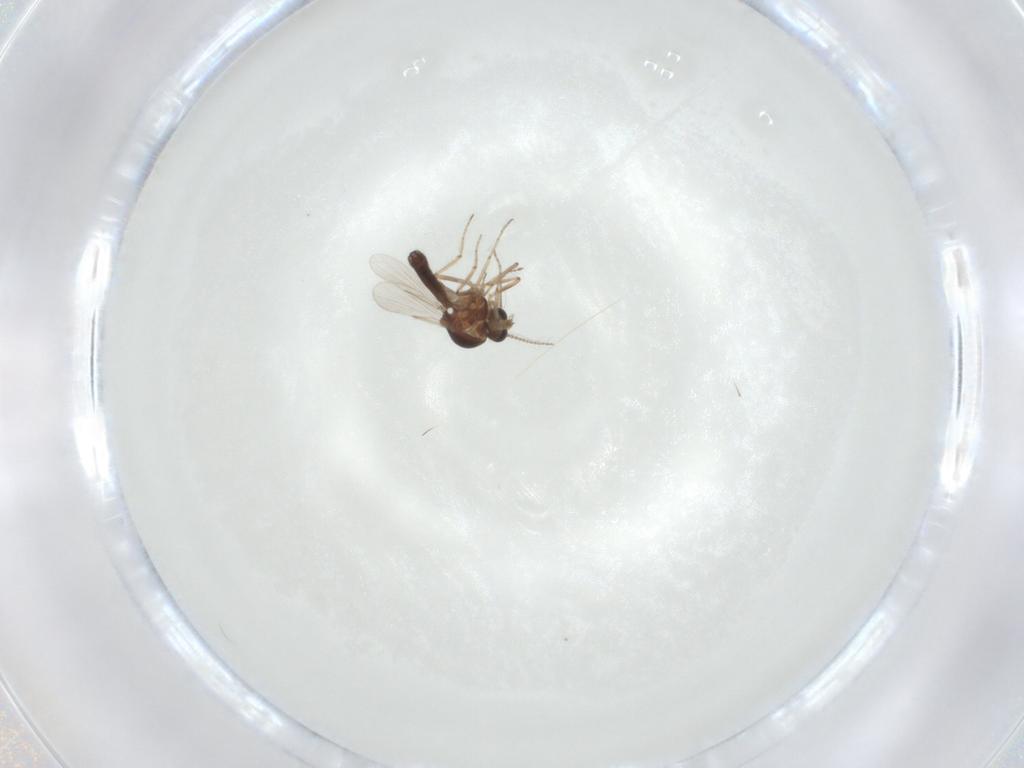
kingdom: Animalia
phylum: Arthropoda
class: Insecta
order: Diptera
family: Ceratopogonidae
